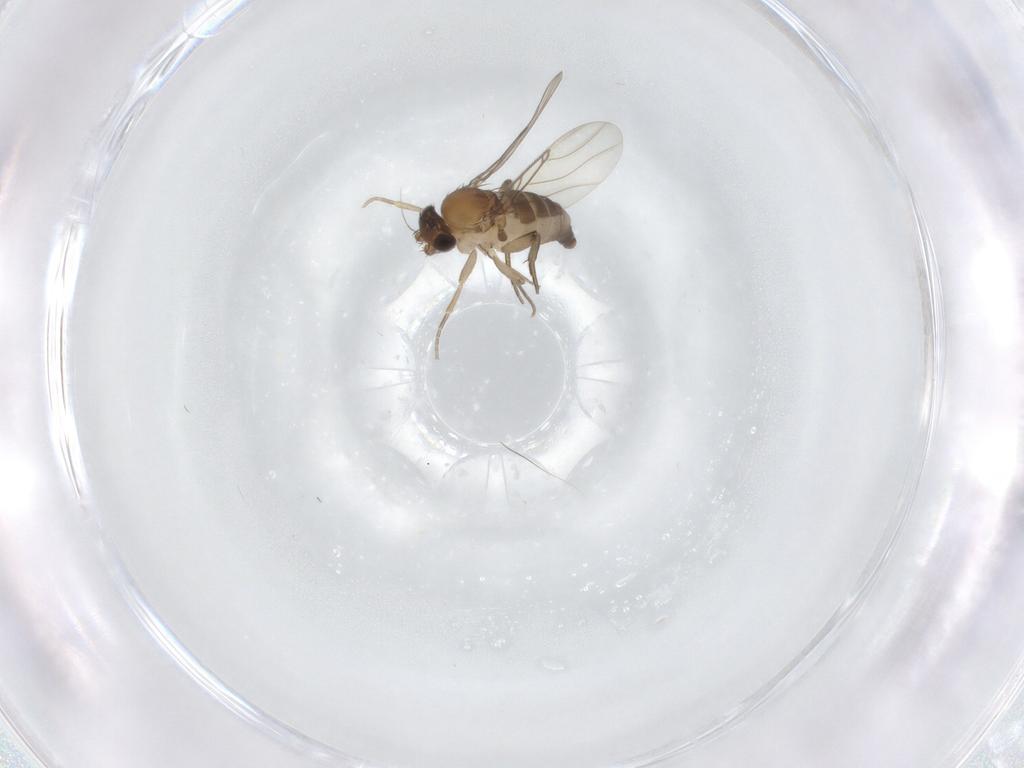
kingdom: Animalia
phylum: Arthropoda
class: Insecta
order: Diptera
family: Phoridae
